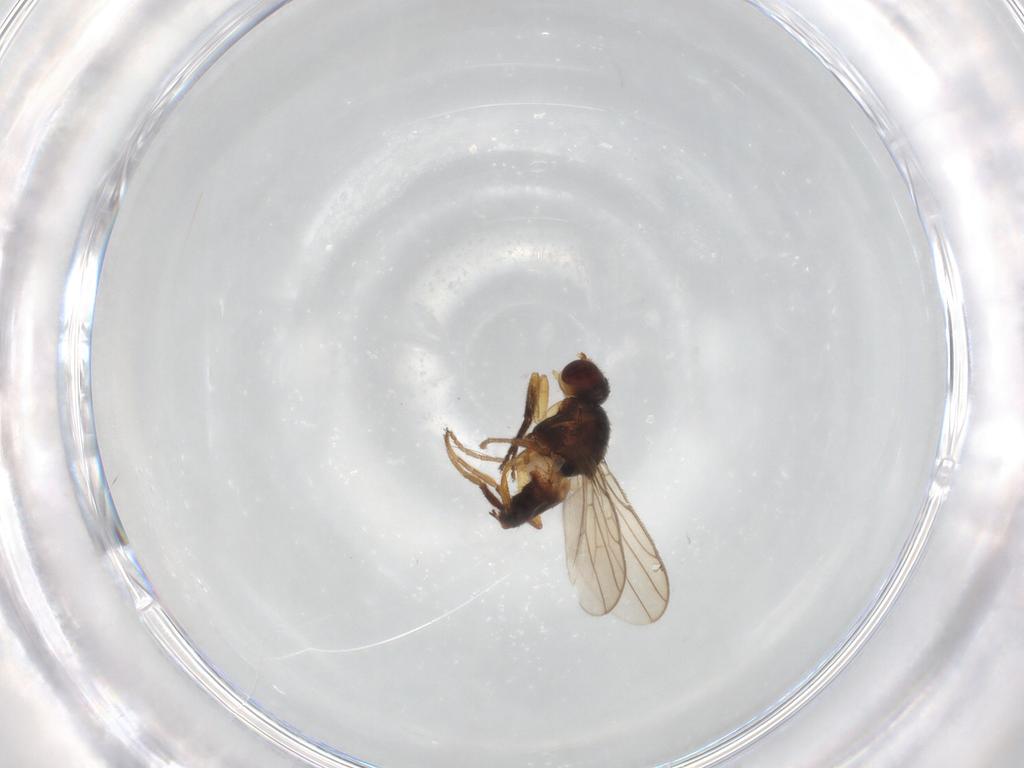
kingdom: Animalia
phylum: Arthropoda
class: Insecta
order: Diptera
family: Chloropidae
